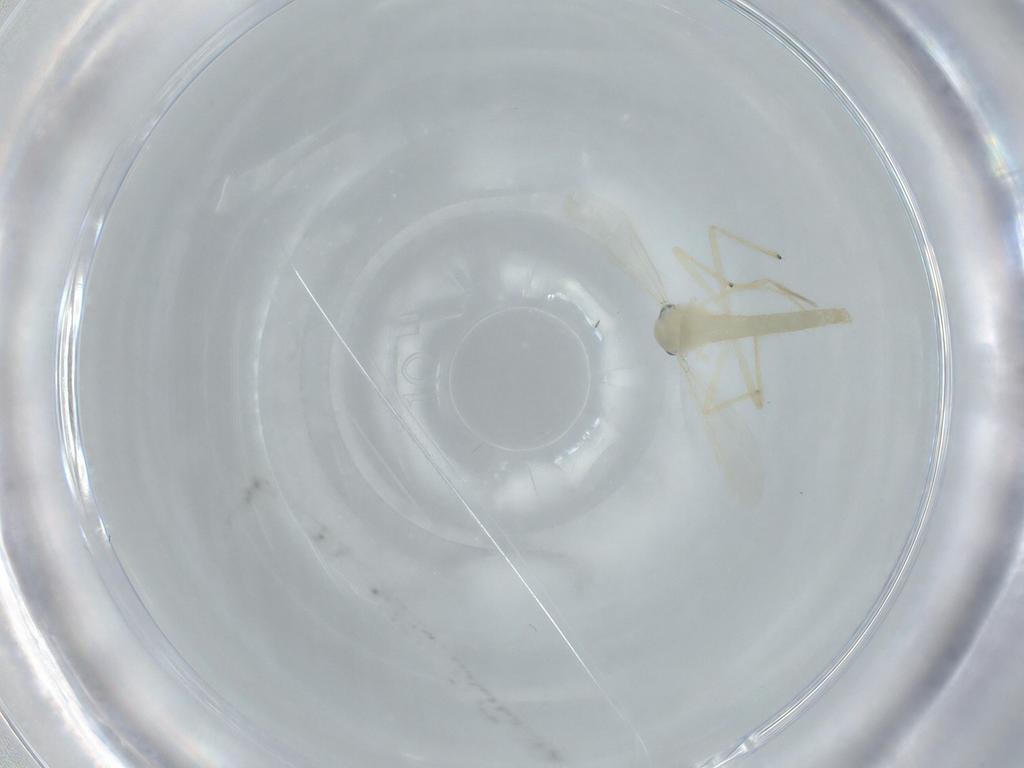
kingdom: Animalia
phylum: Arthropoda
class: Insecta
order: Diptera
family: Chironomidae
